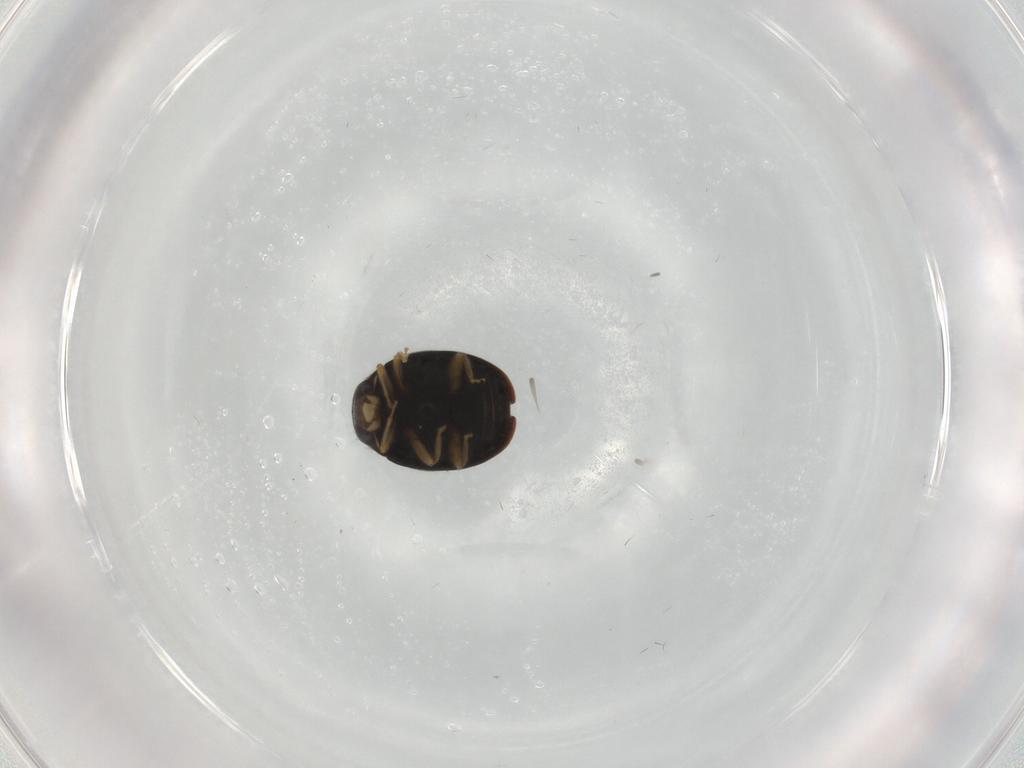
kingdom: Animalia
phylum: Arthropoda
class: Insecta
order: Coleoptera
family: Coccinellidae
